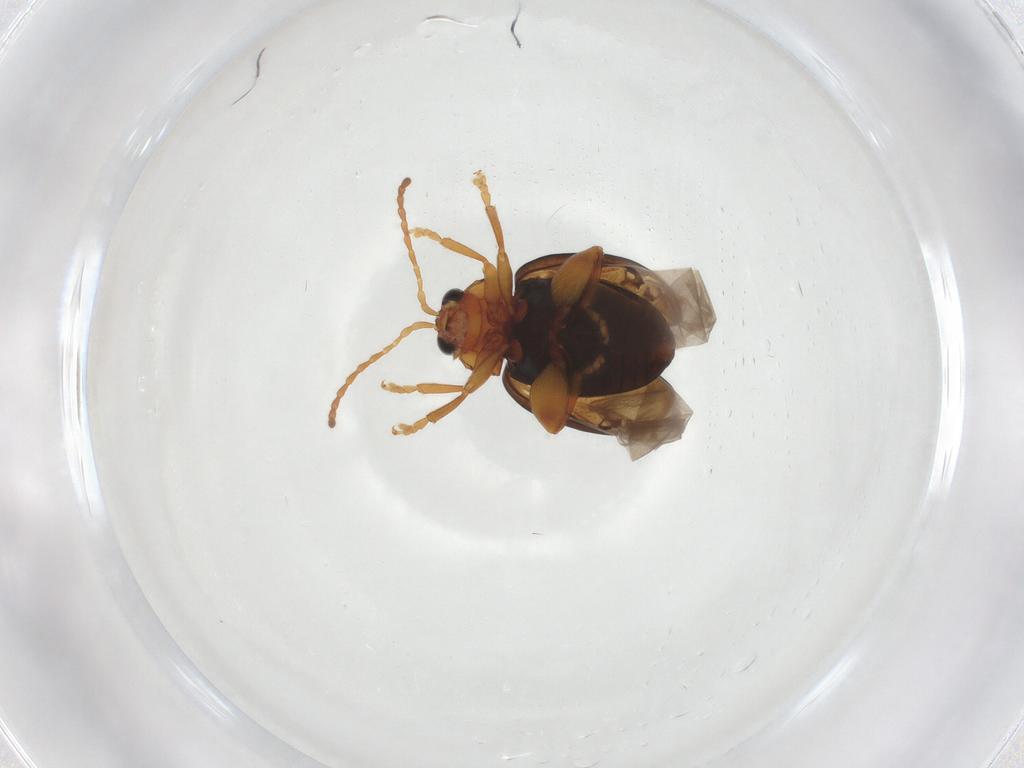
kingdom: Animalia
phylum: Arthropoda
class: Insecta
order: Coleoptera
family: Chrysomelidae
